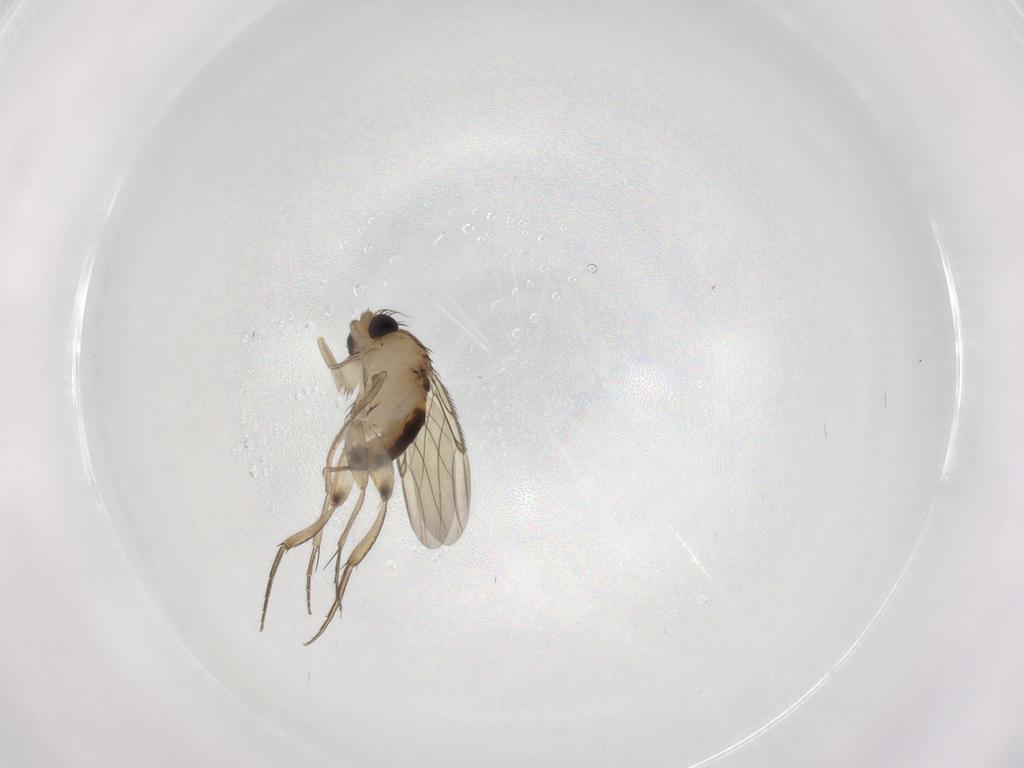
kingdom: Animalia
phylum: Arthropoda
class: Insecta
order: Diptera
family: Phoridae
